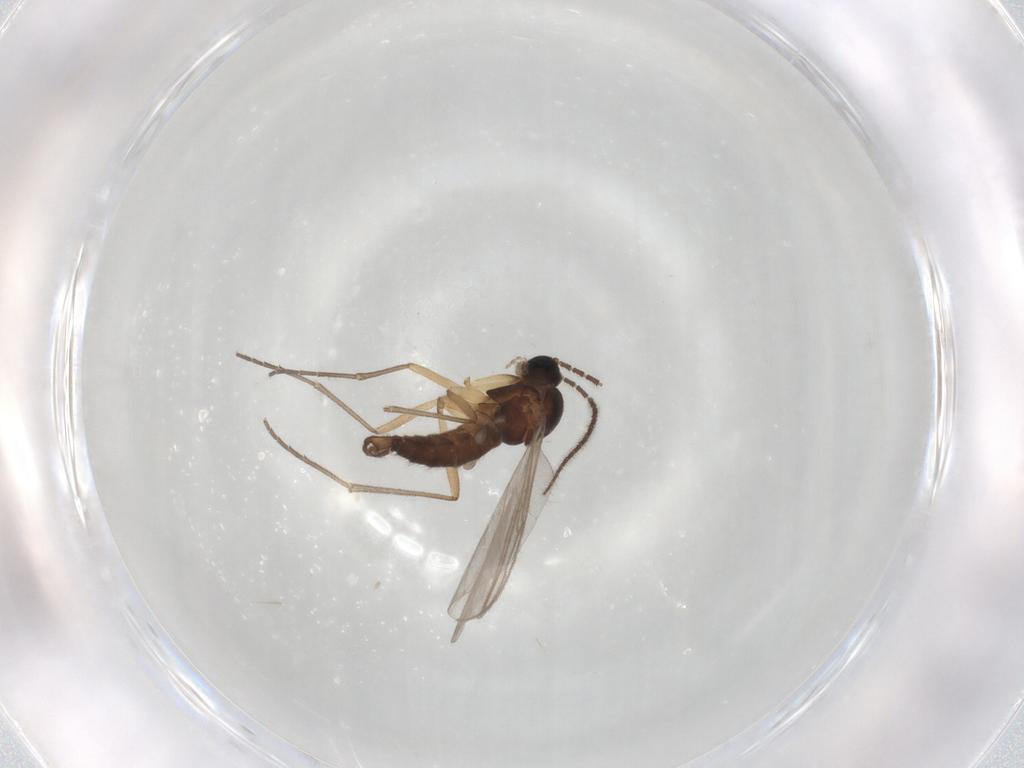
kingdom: Animalia
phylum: Arthropoda
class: Insecta
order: Diptera
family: Sciaridae
